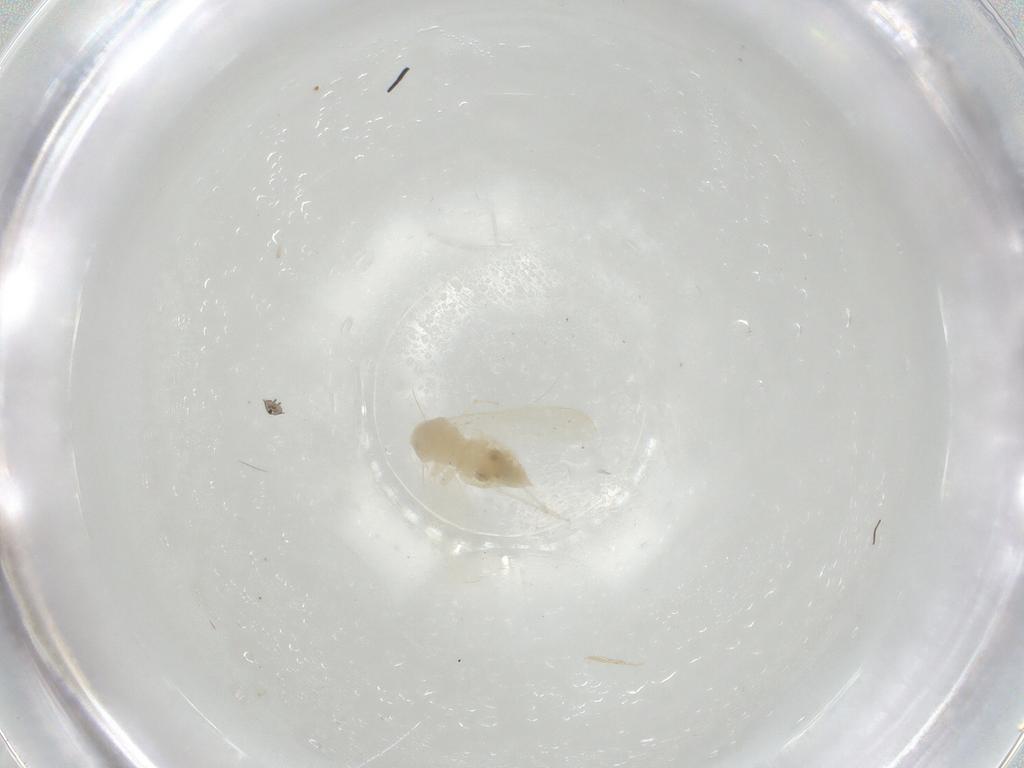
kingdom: Animalia
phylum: Arthropoda
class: Insecta
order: Hemiptera
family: Aleyrodidae
